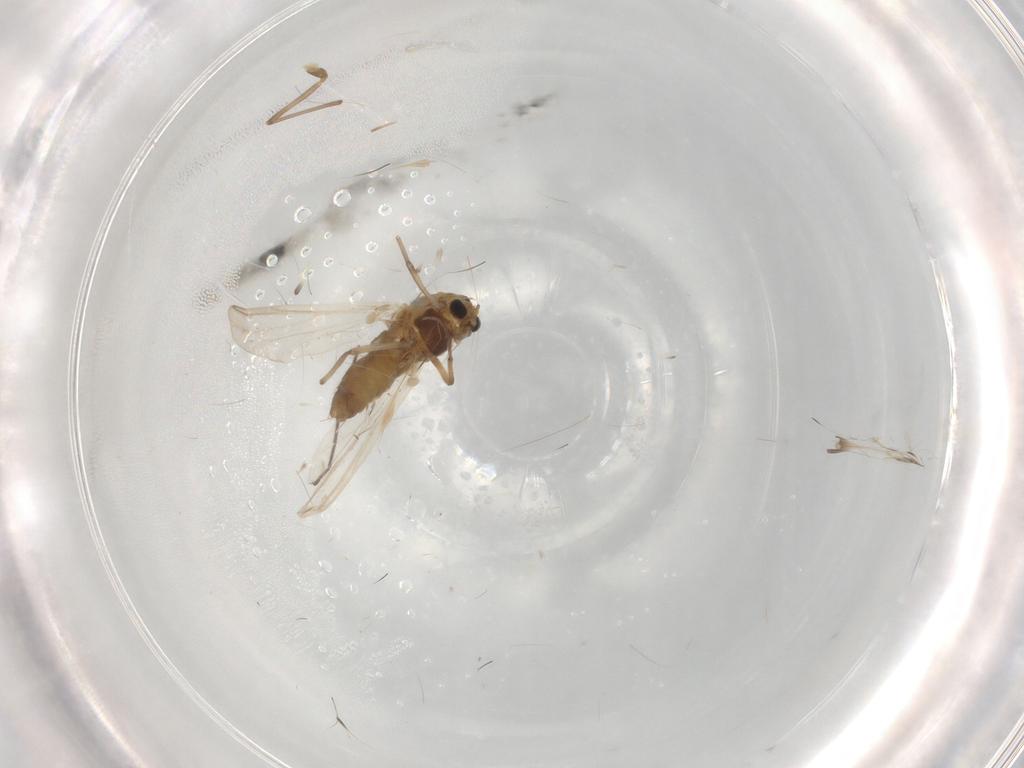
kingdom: Animalia
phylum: Arthropoda
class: Insecta
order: Diptera
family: Chironomidae
